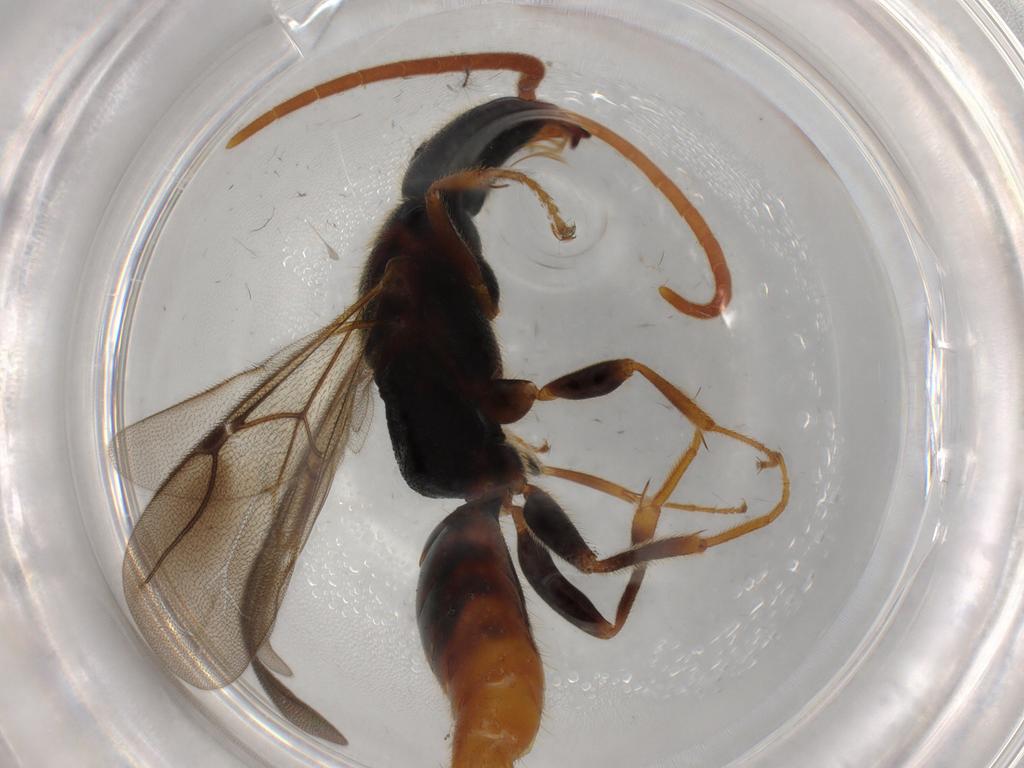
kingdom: Animalia
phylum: Arthropoda
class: Insecta
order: Hymenoptera
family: Bethylidae
